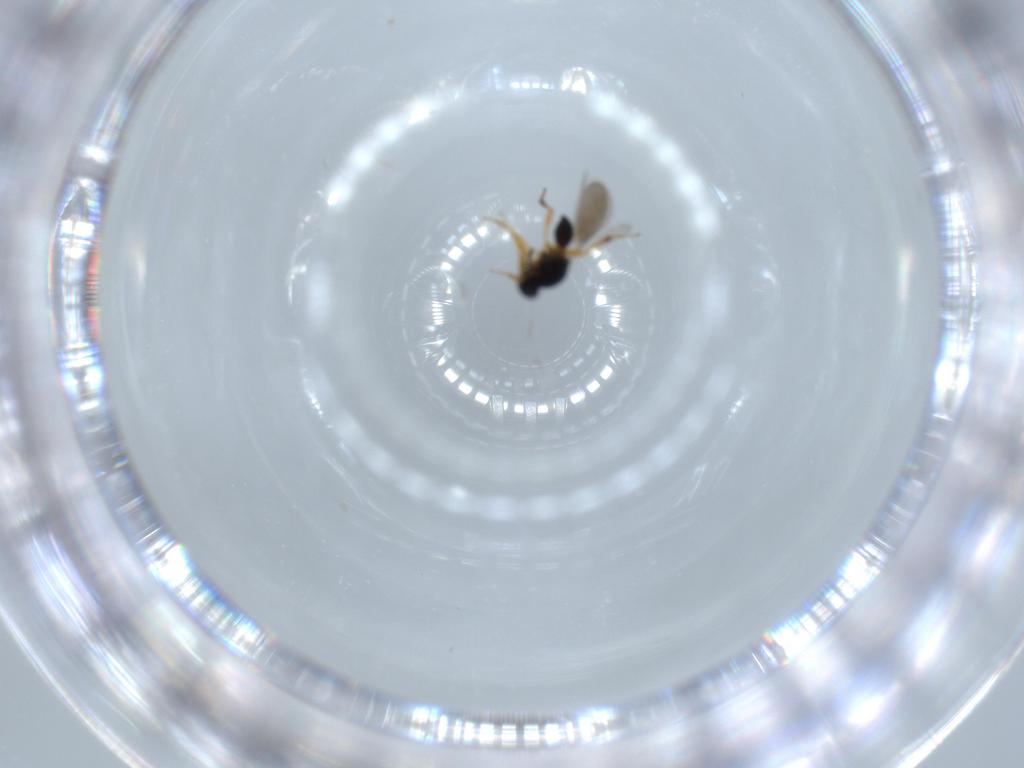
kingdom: Animalia
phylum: Arthropoda
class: Insecta
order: Hymenoptera
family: Platygastridae
